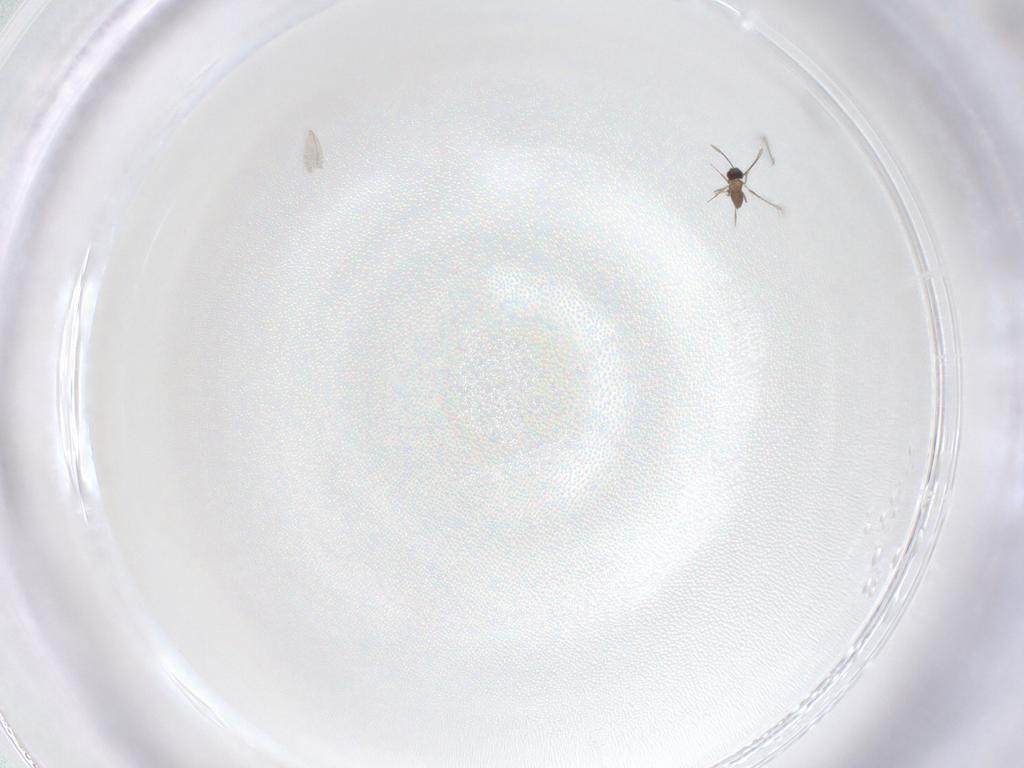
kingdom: Animalia
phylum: Arthropoda
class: Insecta
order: Diptera
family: Cecidomyiidae
